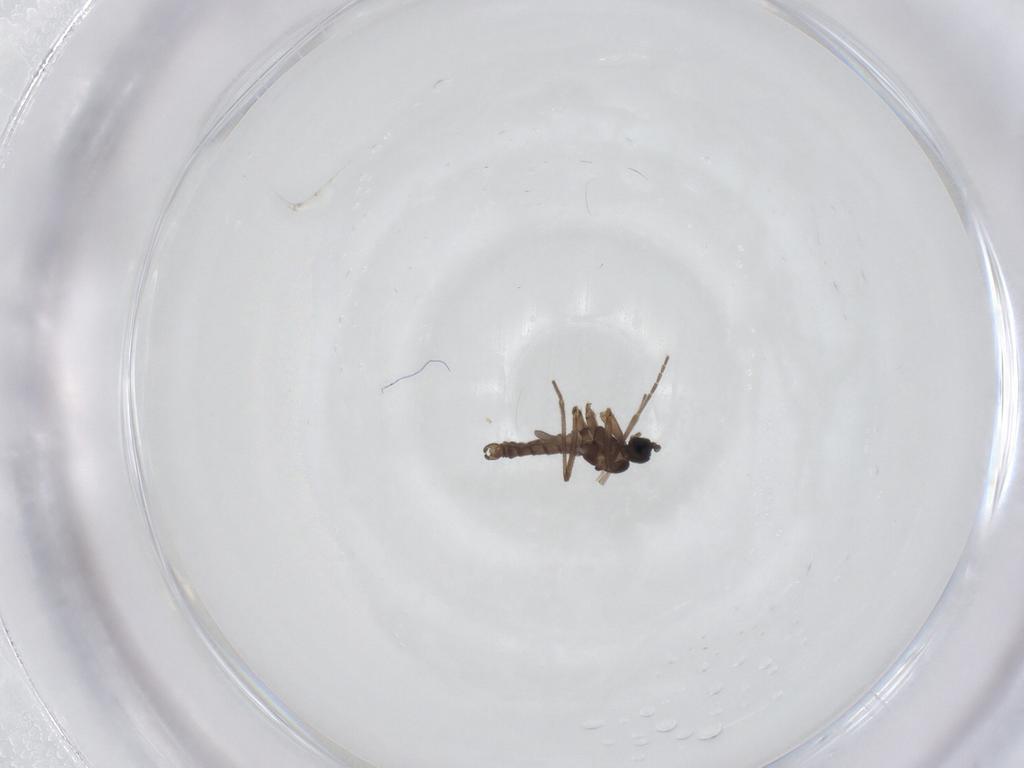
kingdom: Animalia
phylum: Arthropoda
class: Insecta
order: Diptera
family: Sciaridae
